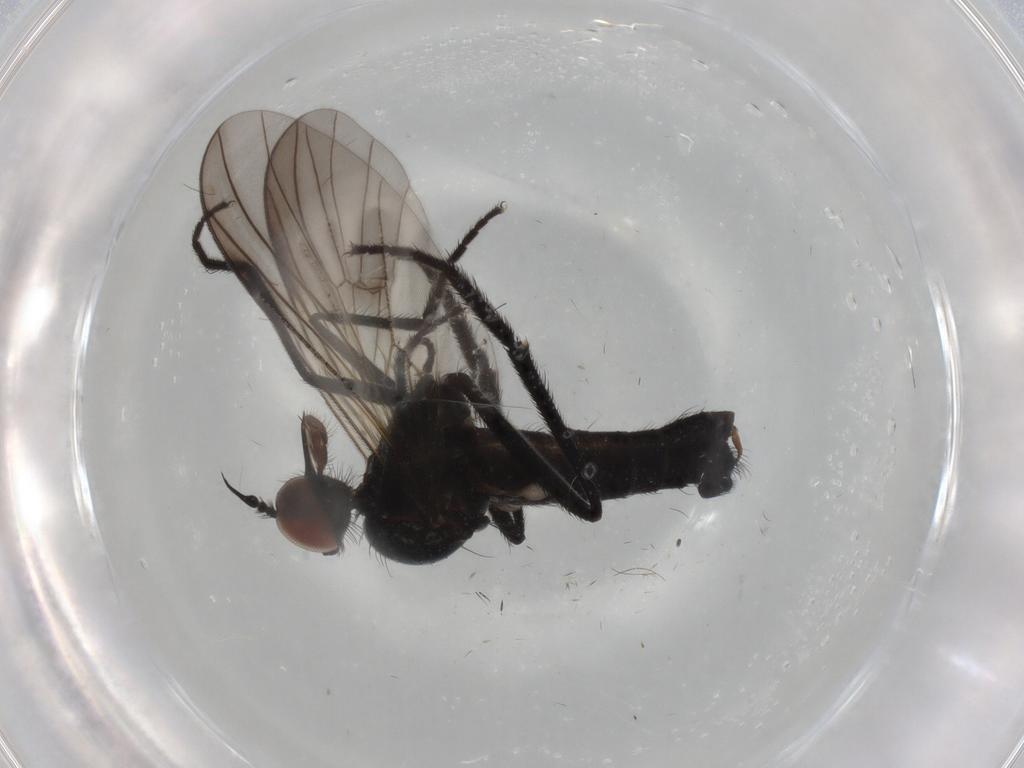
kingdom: Animalia
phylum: Arthropoda
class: Insecta
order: Diptera
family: Empididae
